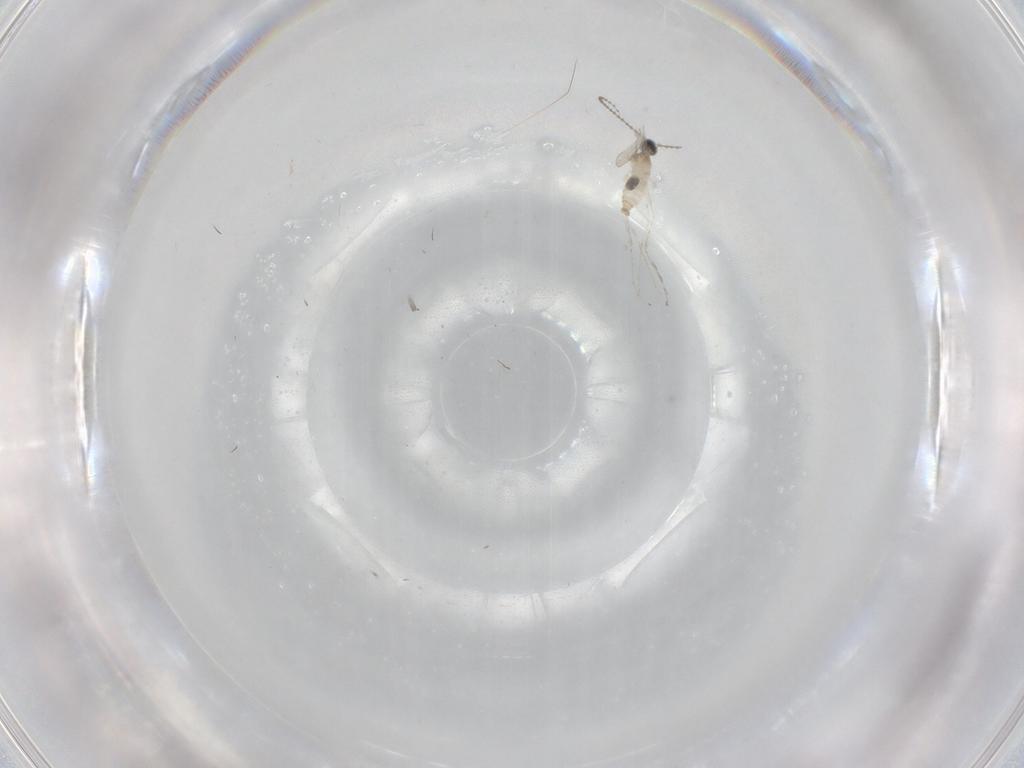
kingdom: Animalia
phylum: Arthropoda
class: Insecta
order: Diptera
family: Cecidomyiidae
